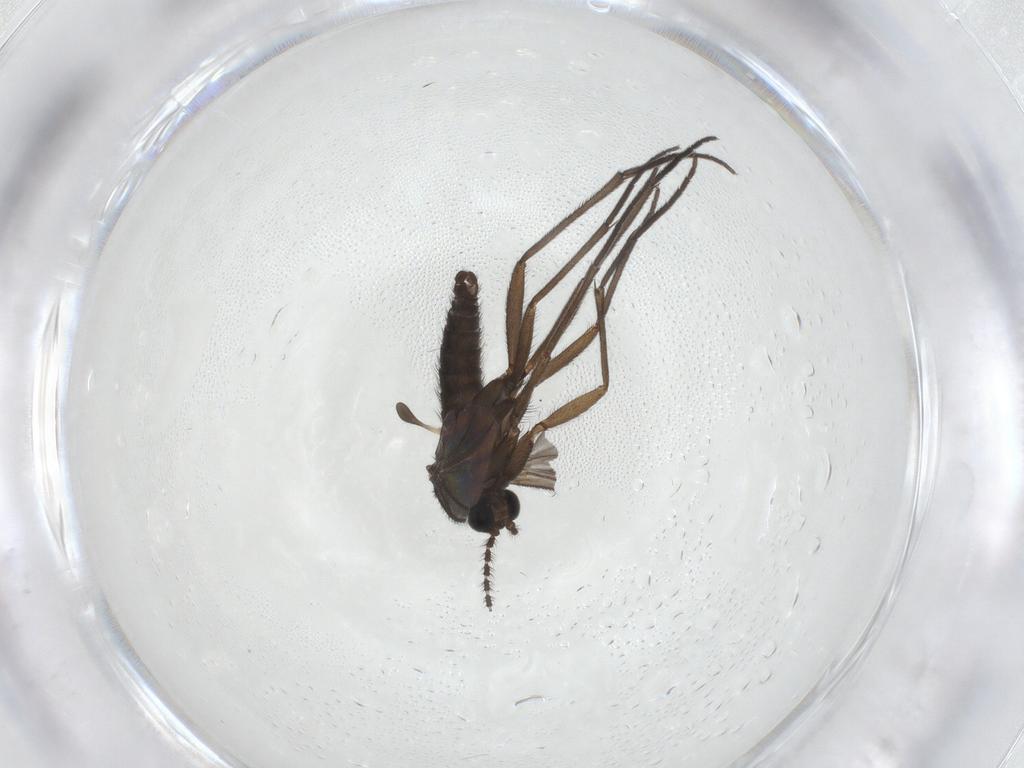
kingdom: Animalia
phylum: Arthropoda
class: Insecta
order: Diptera
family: Sciaridae
